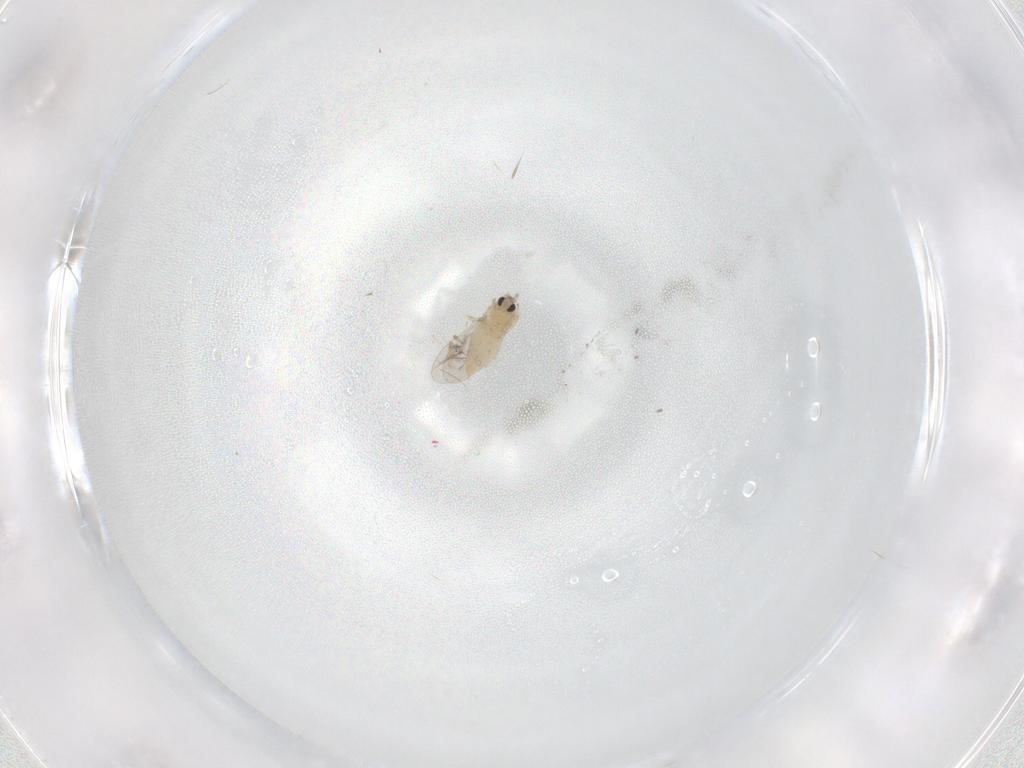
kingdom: Animalia
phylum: Arthropoda
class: Insecta
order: Diptera
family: Cecidomyiidae
